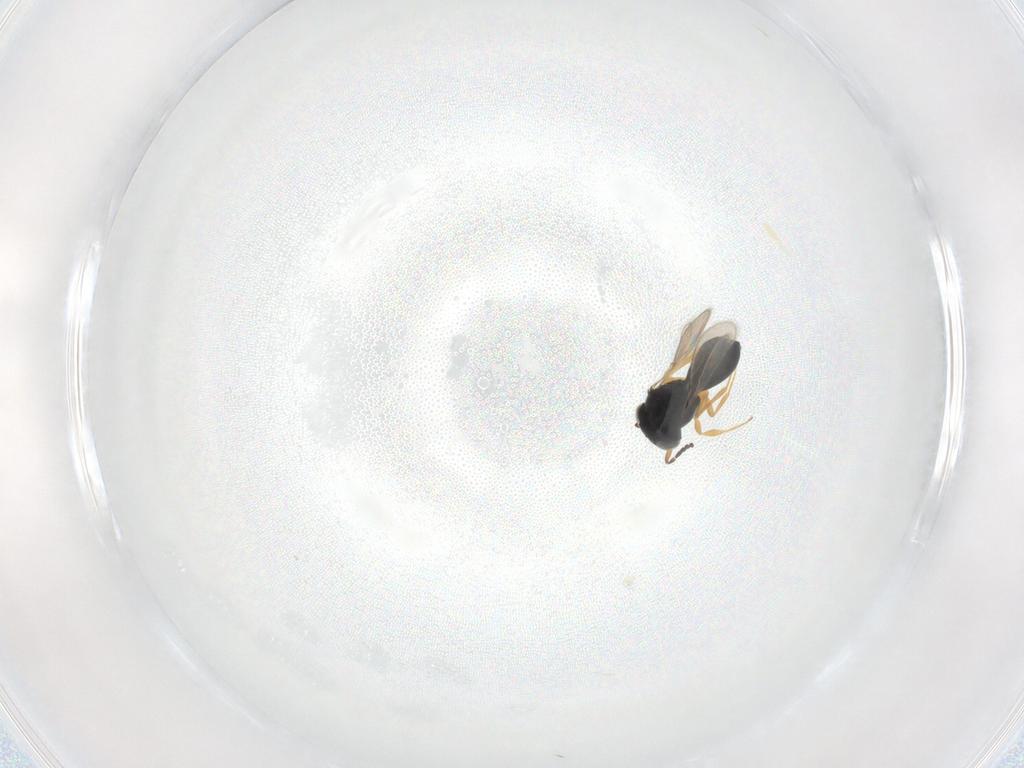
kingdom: Animalia
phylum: Arthropoda
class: Insecta
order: Hymenoptera
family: Scelionidae
